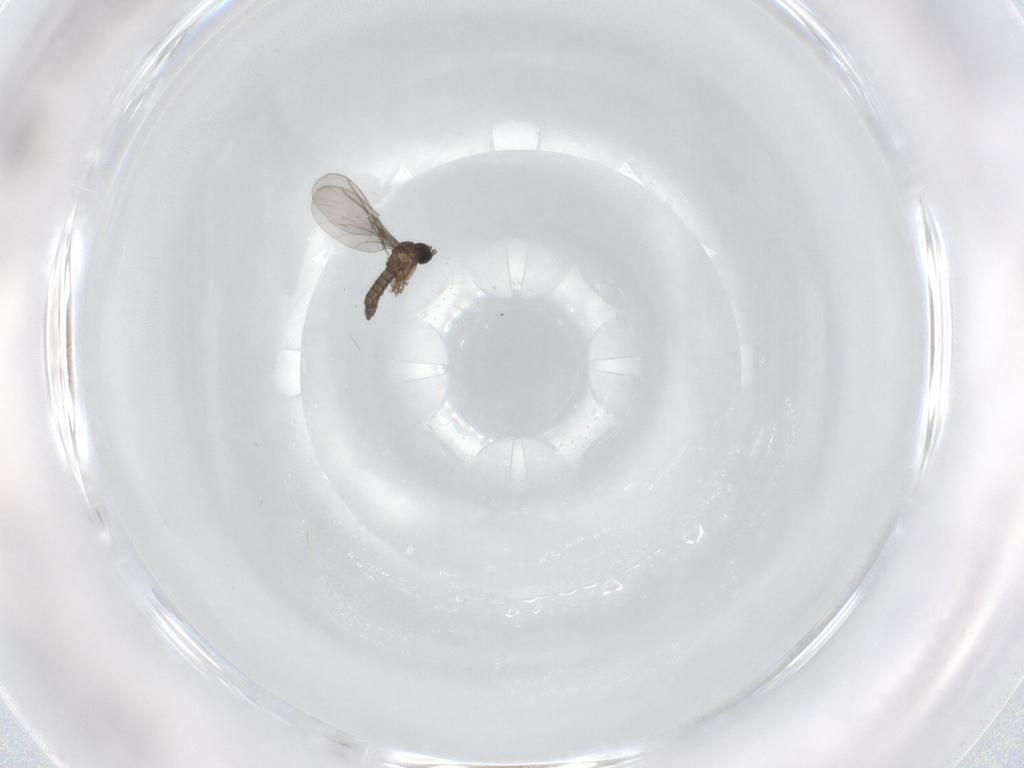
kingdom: Animalia
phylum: Arthropoda
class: Insecta
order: Diptera
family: Sciaridae
